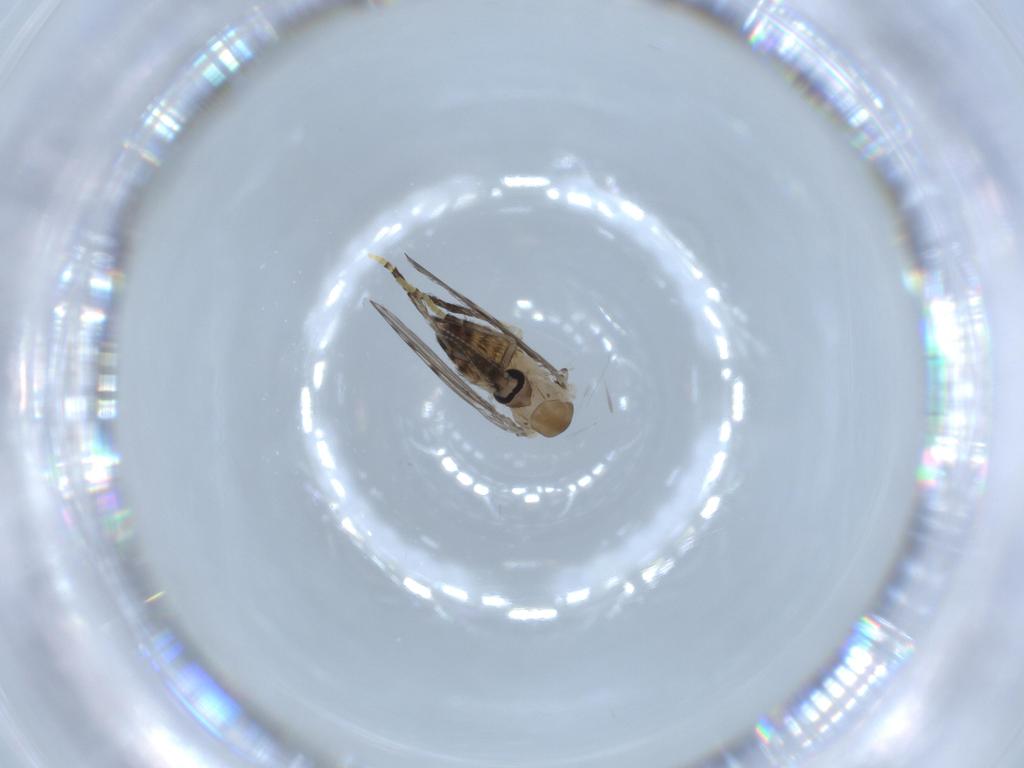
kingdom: Animalia
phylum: Arthropoda
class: Insecta
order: Diptera
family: Psychodidae
